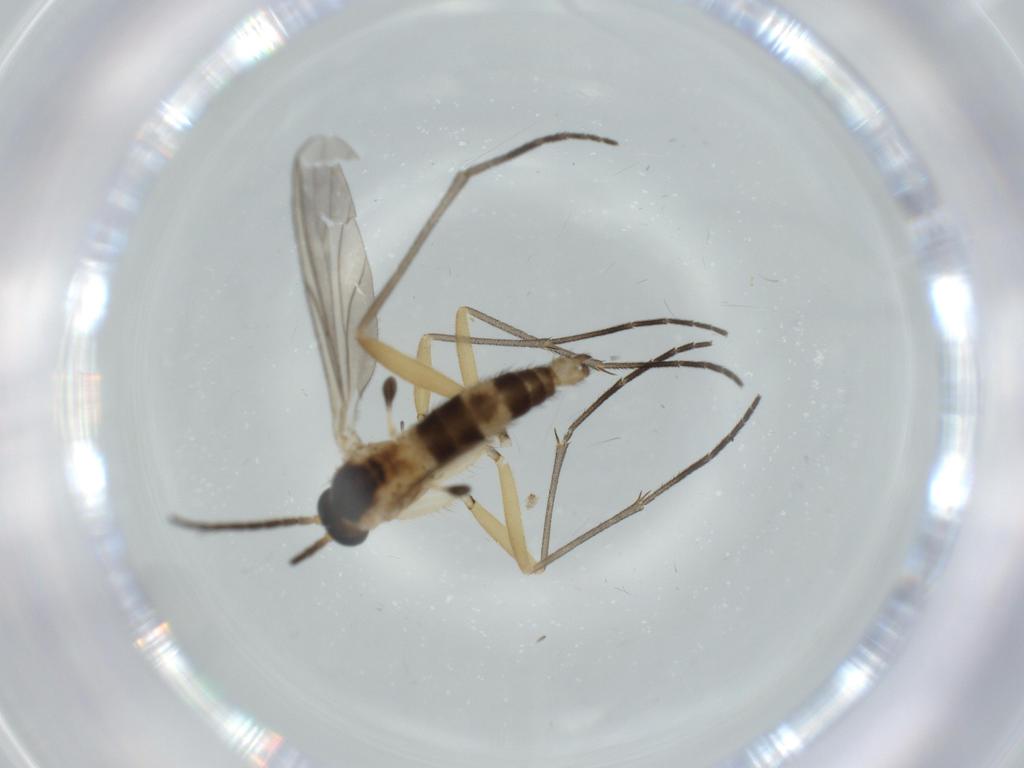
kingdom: Animalia
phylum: Arthropoda
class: Insecta
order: Diptera
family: Sciaridae
